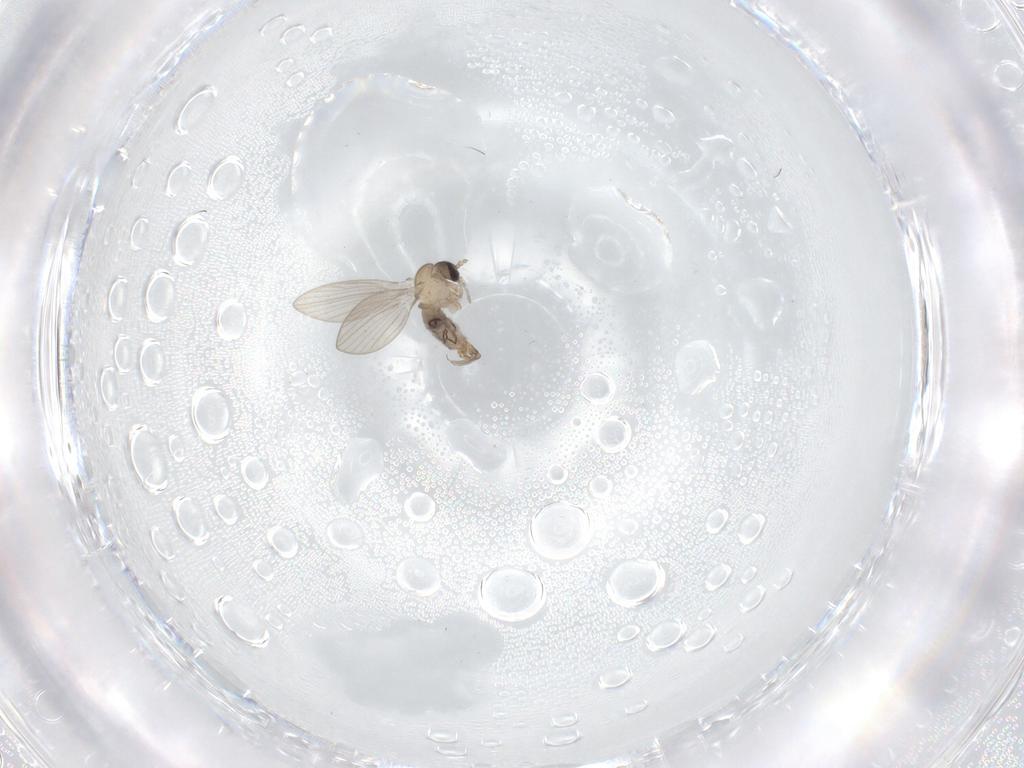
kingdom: Animalia
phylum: Arthropoda
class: Insecta
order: Diptera
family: Psychodidae
